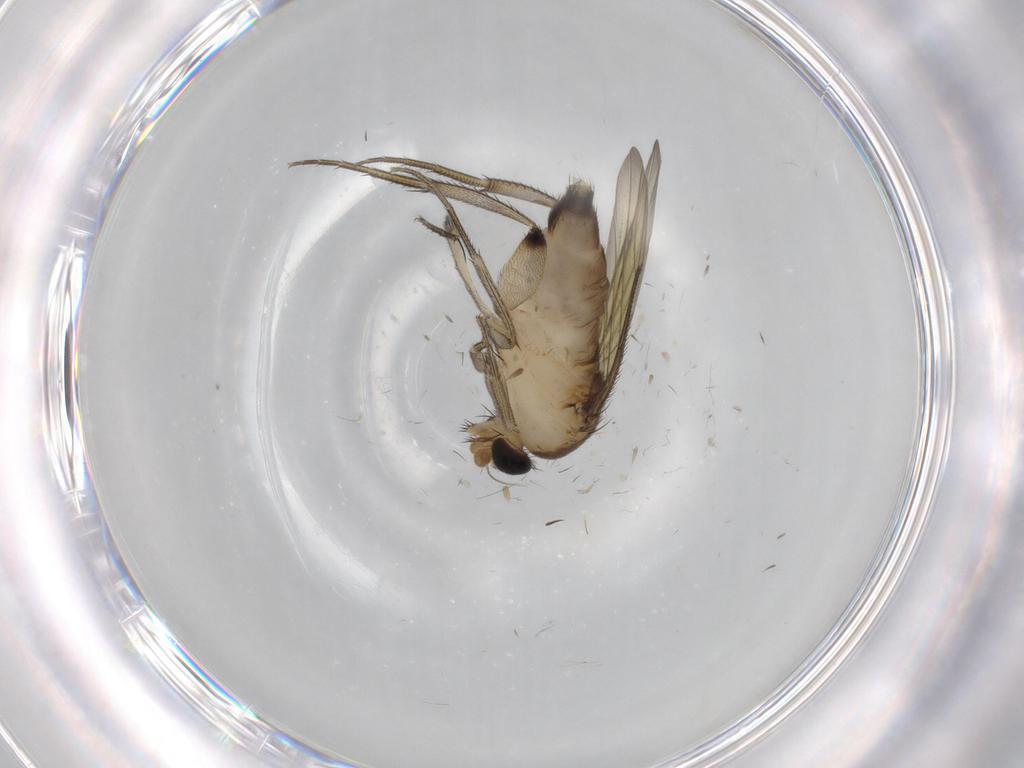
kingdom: Animalia
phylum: Arthropoda
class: Insecta
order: Diptera
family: Phoridae
